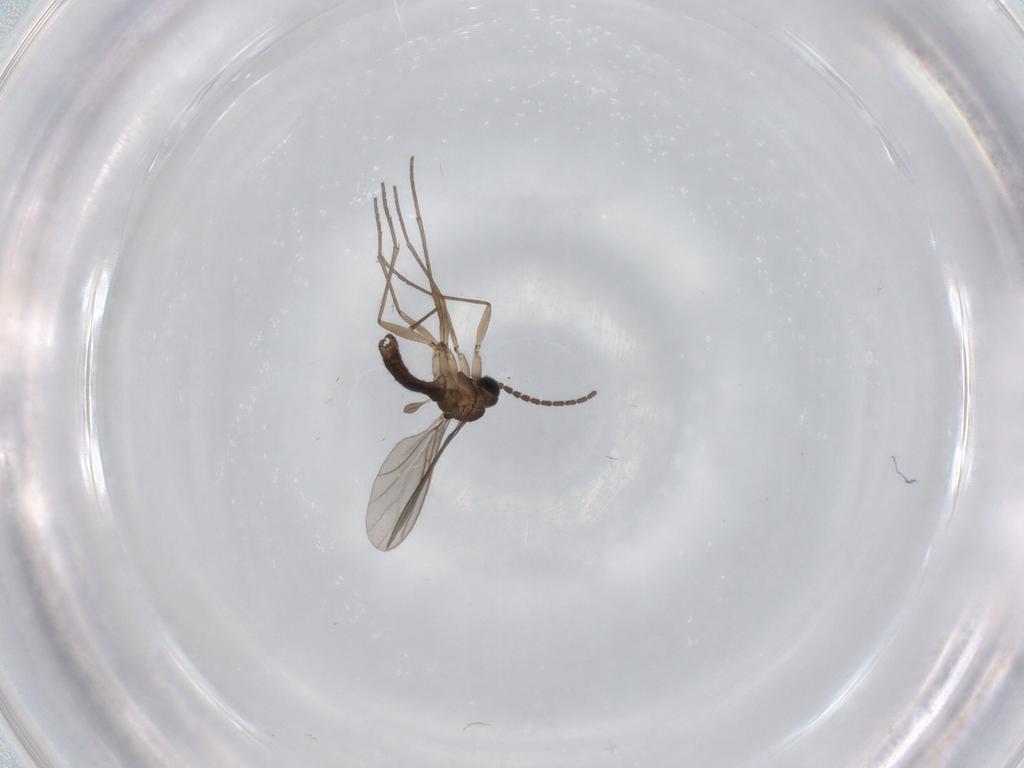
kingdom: Animalia
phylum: Arthropoda
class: Insecta
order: Diptera
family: Sciaridae
